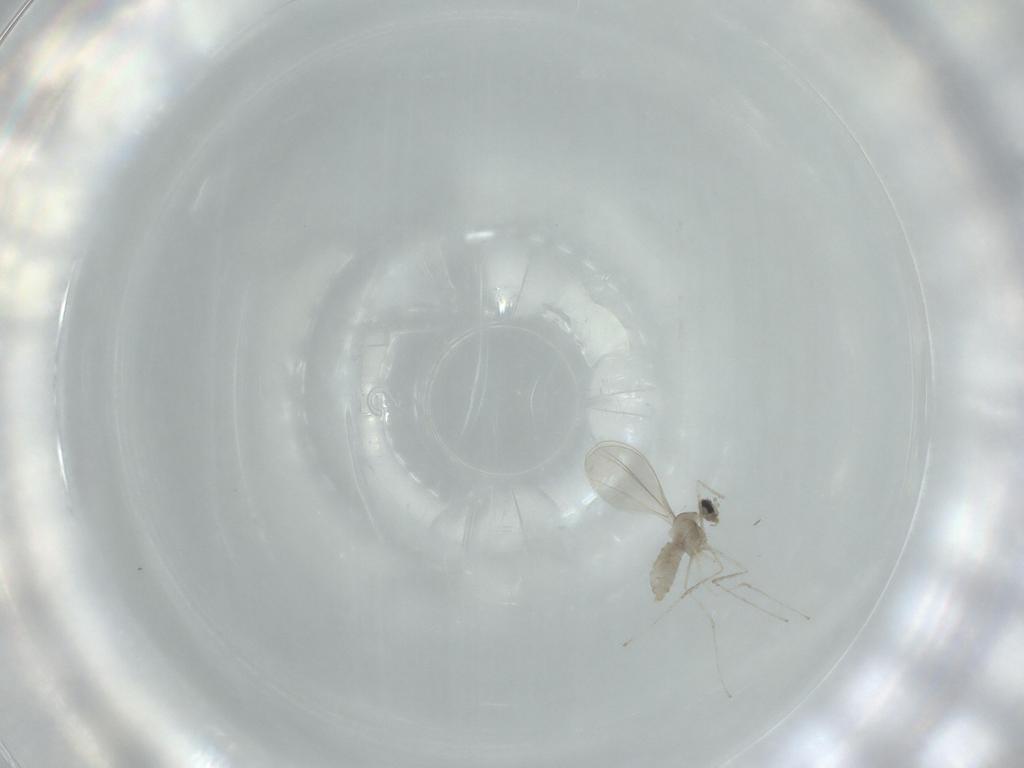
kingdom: Animalia
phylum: Arthropoda
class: Insecta
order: Diptera
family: Cecidomyiidae
